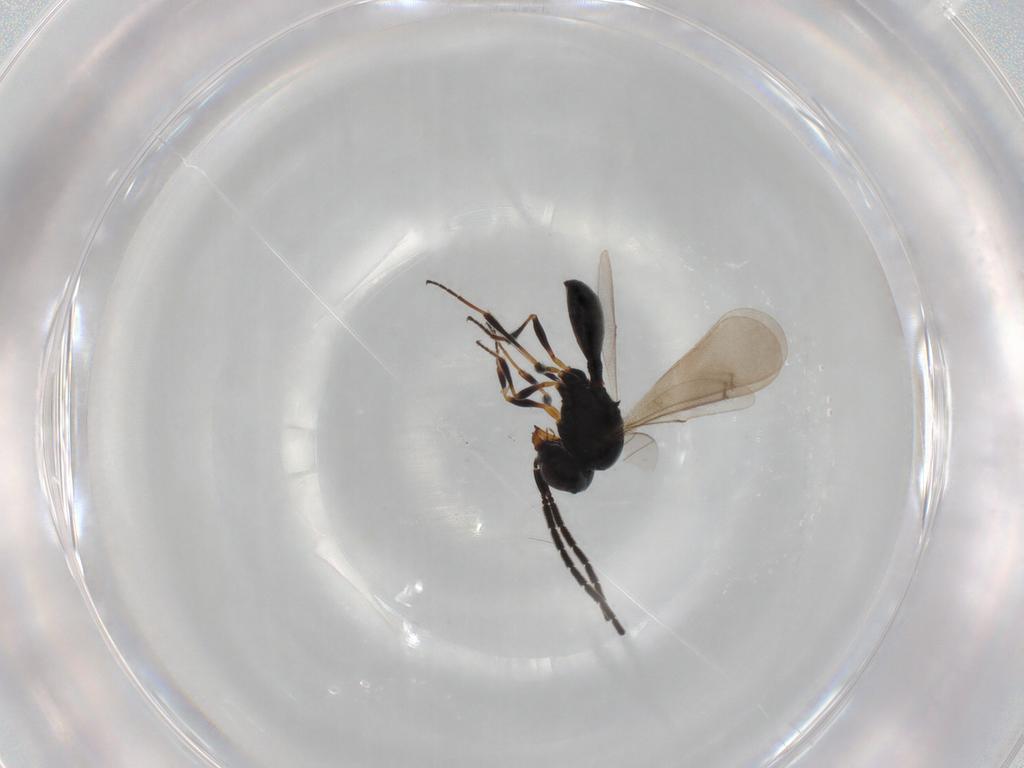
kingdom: Animalia
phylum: Arthropoda
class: Insecta
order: Hymenoptera
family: Scelionidae
